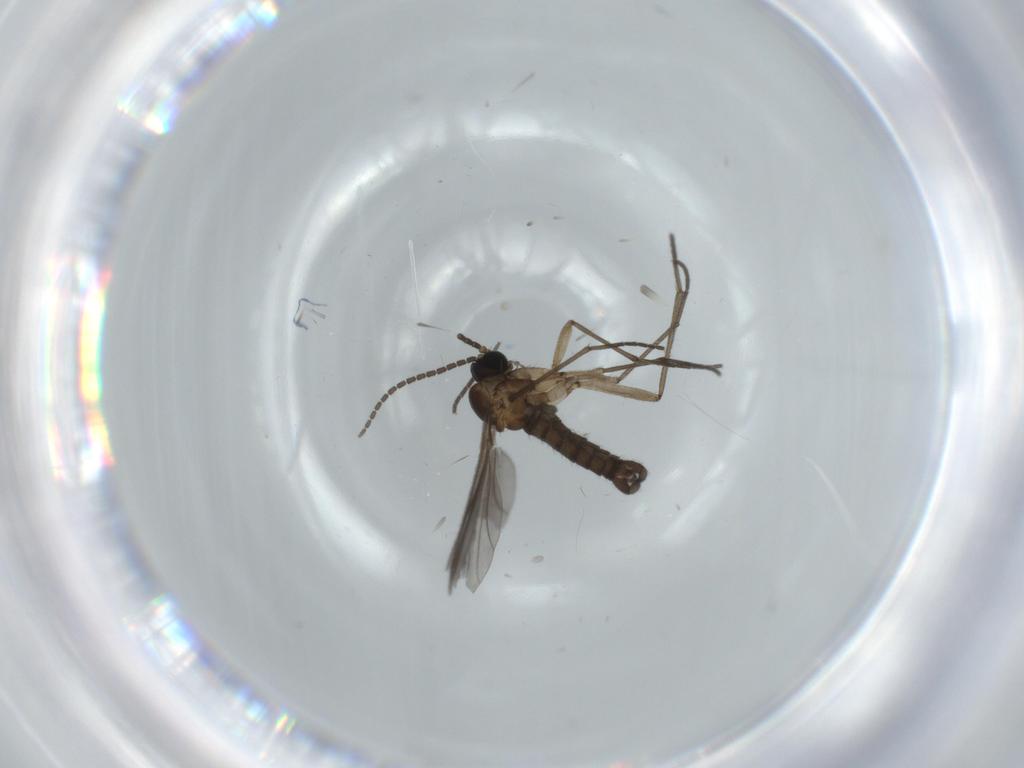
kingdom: Animalia
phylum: Arthropoda
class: Insecta
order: Diptera
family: Sciaridae
